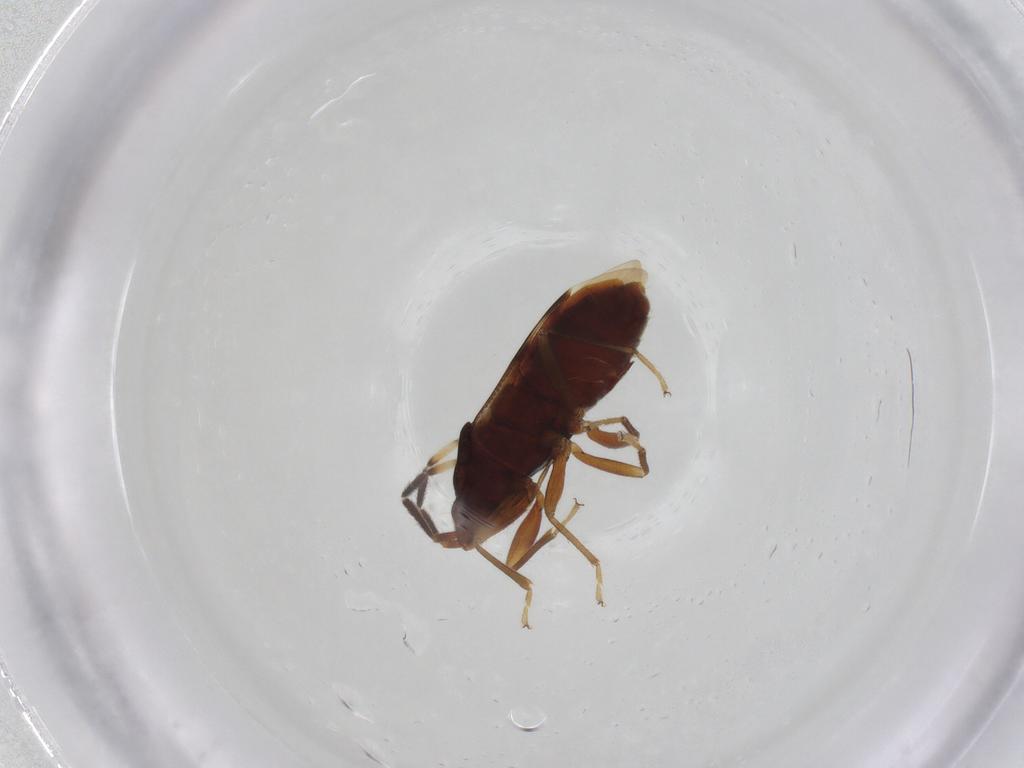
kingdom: Animalia
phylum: Arthropoda
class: Insecta
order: Hemiptera
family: Rhyparochromidae
